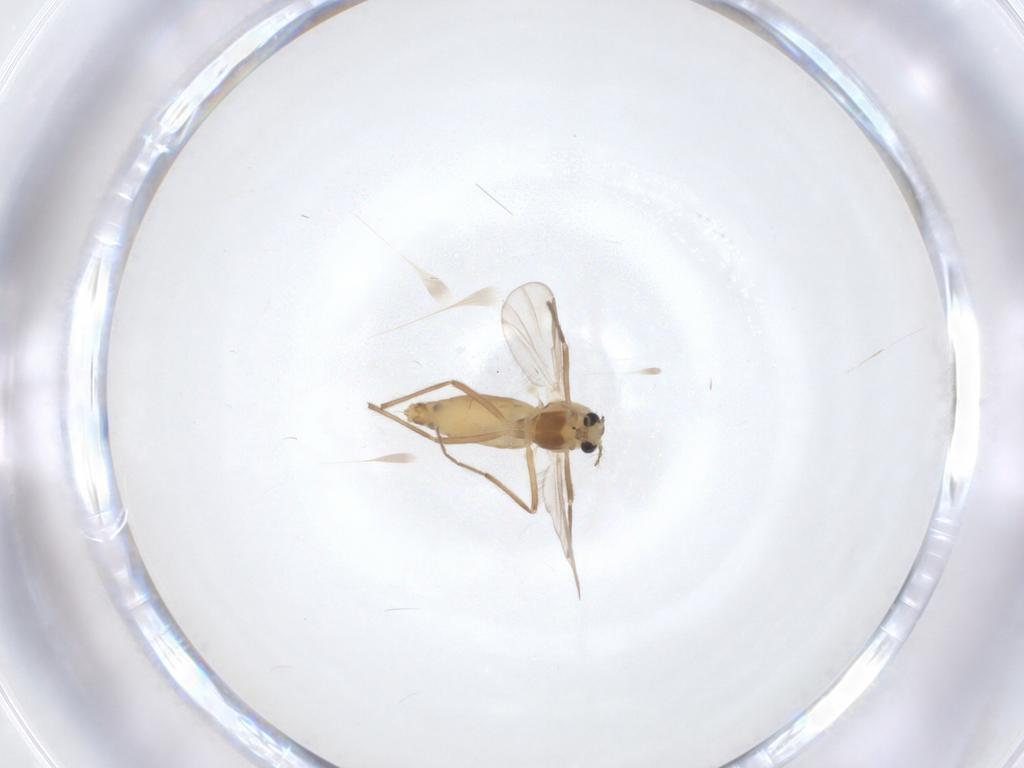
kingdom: Animalia
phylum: Arthropoda
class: Insecta
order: Diptera
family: Chironomidae
